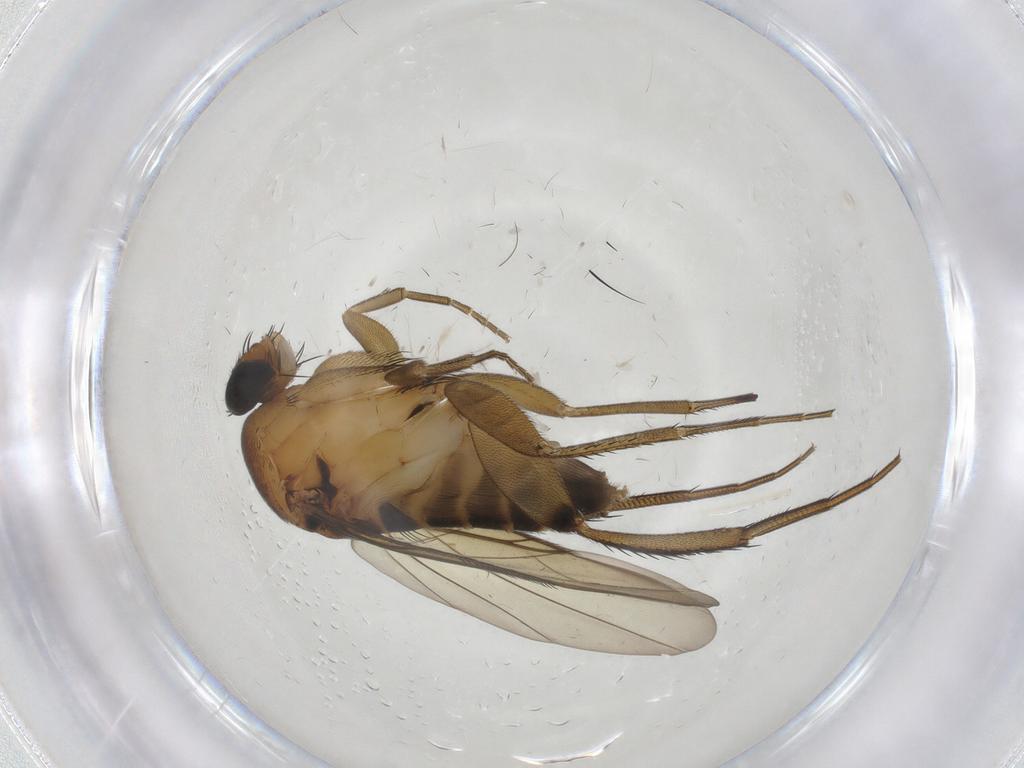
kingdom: Animalia
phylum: Arthropoda
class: Insecta
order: Diptera
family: Phoridae
